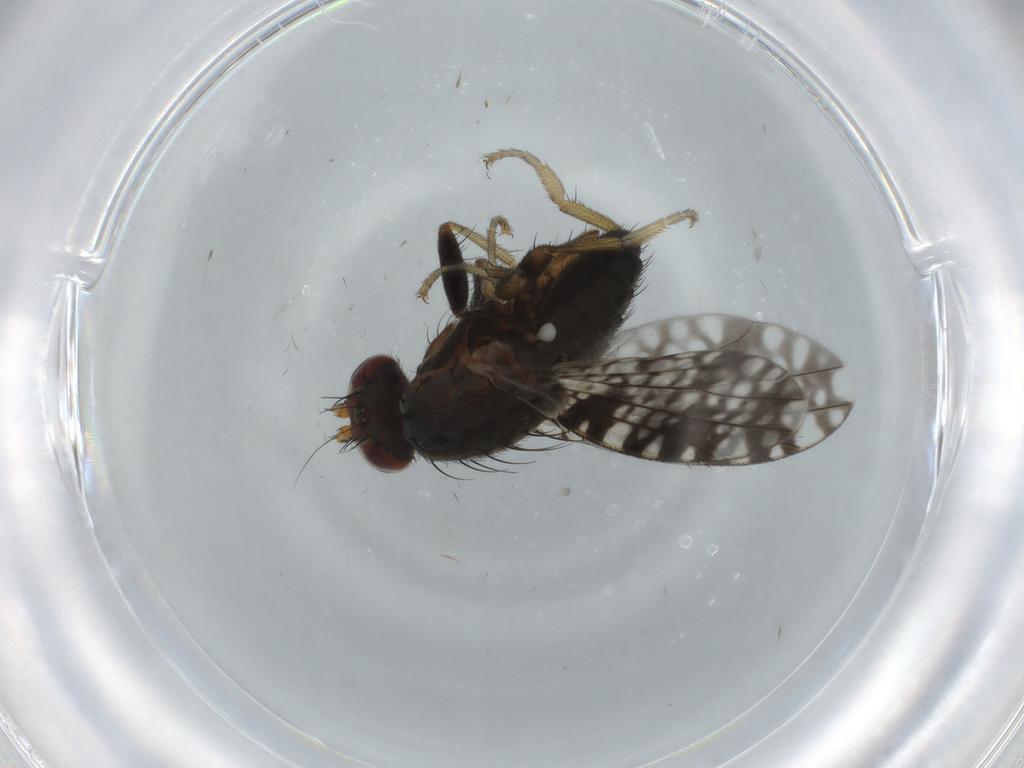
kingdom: Animalia
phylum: Arthropoda
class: Insecta
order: Diptera
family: Tephritidae
